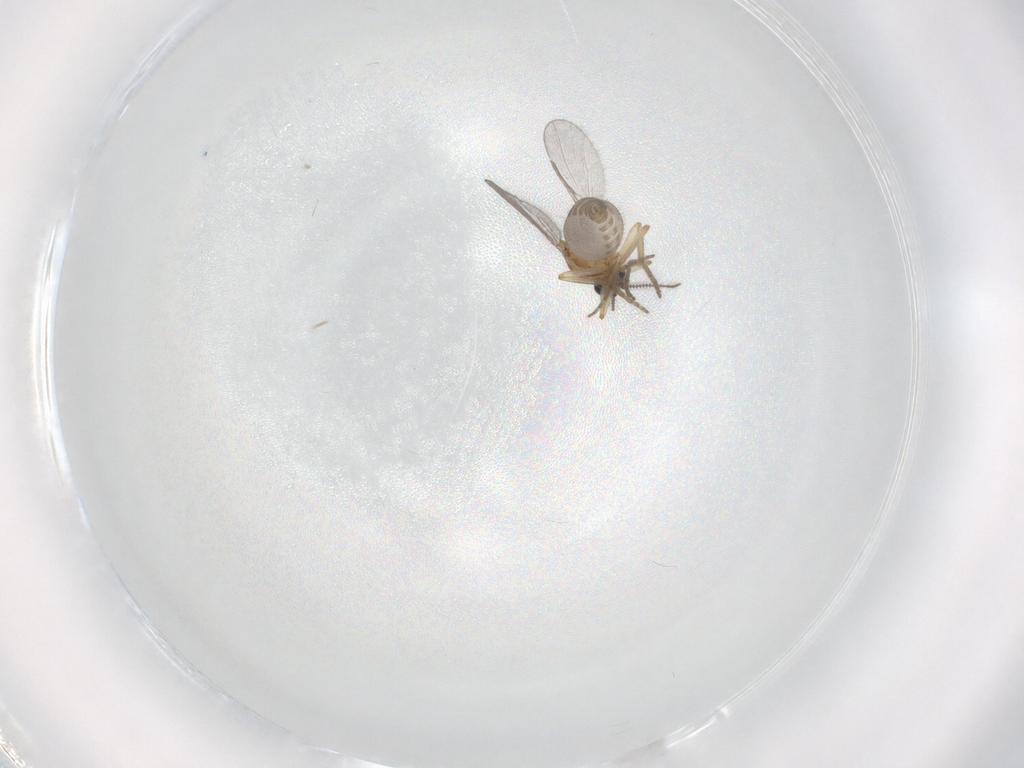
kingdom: Animalia
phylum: Arthropoda
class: Insecta
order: Diptera
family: Ceratopogonidae
